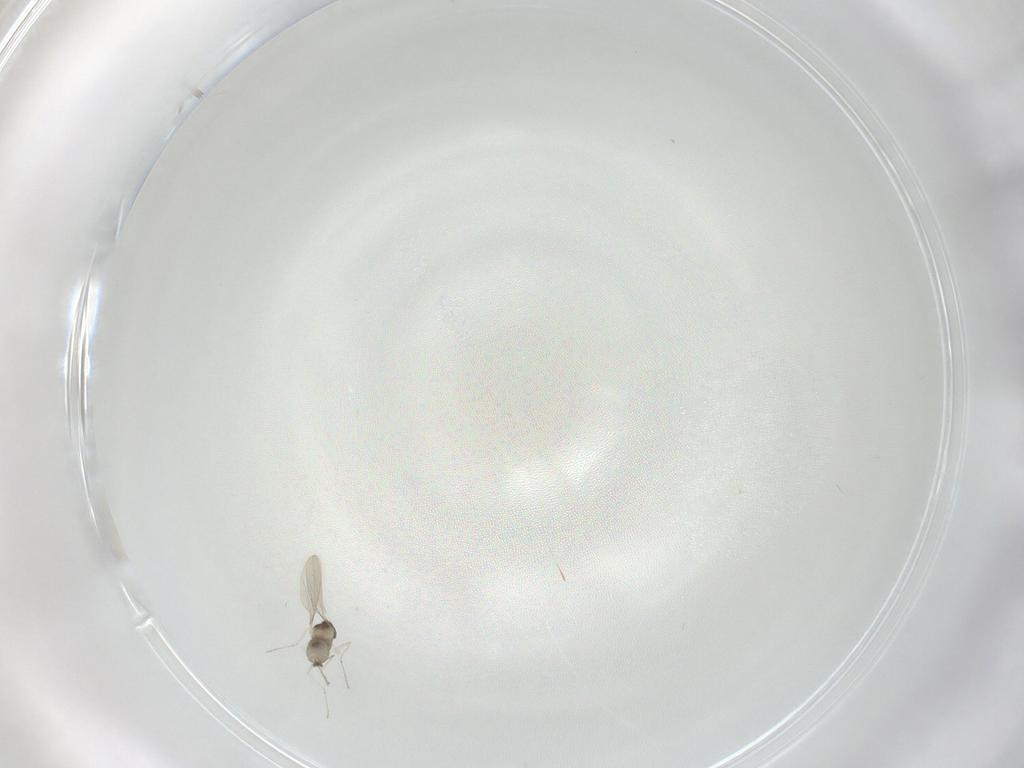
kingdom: Animalia
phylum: Arthropoda
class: Insecta
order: Diptera
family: Cecidomyiidae
